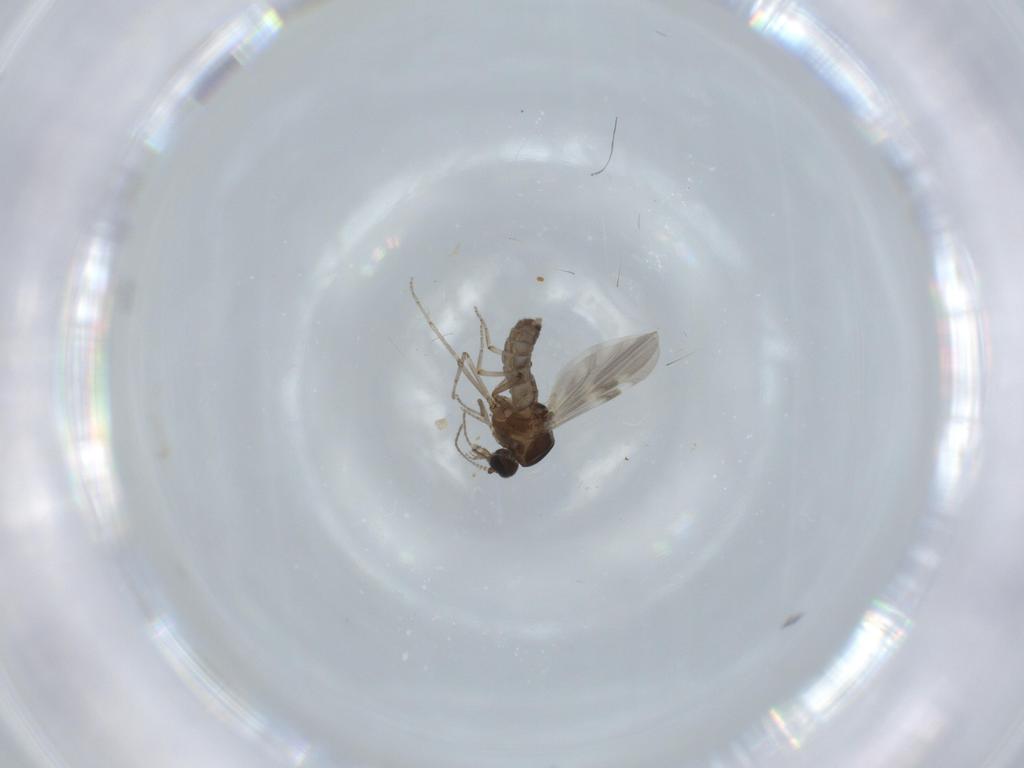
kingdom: Animalia
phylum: Arthropoda
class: Insecta
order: Diptera
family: Ceratopogonidae
